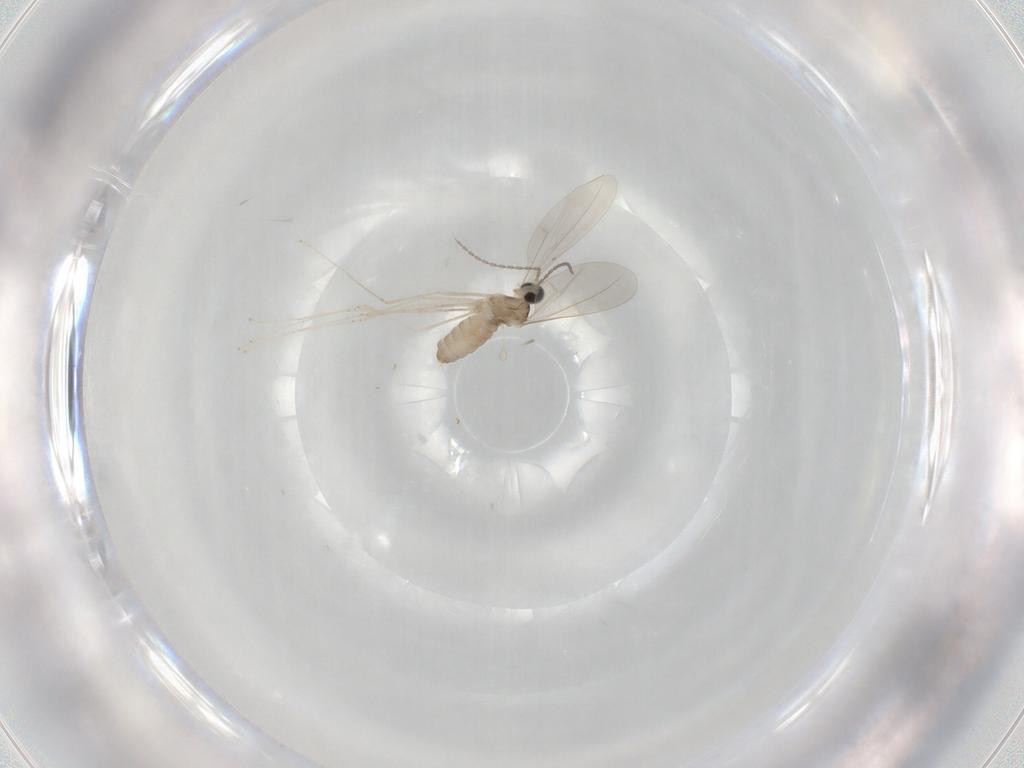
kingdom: Animalia
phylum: Arthropoda
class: Insecta
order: Diptera
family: Cecidomyiidae
